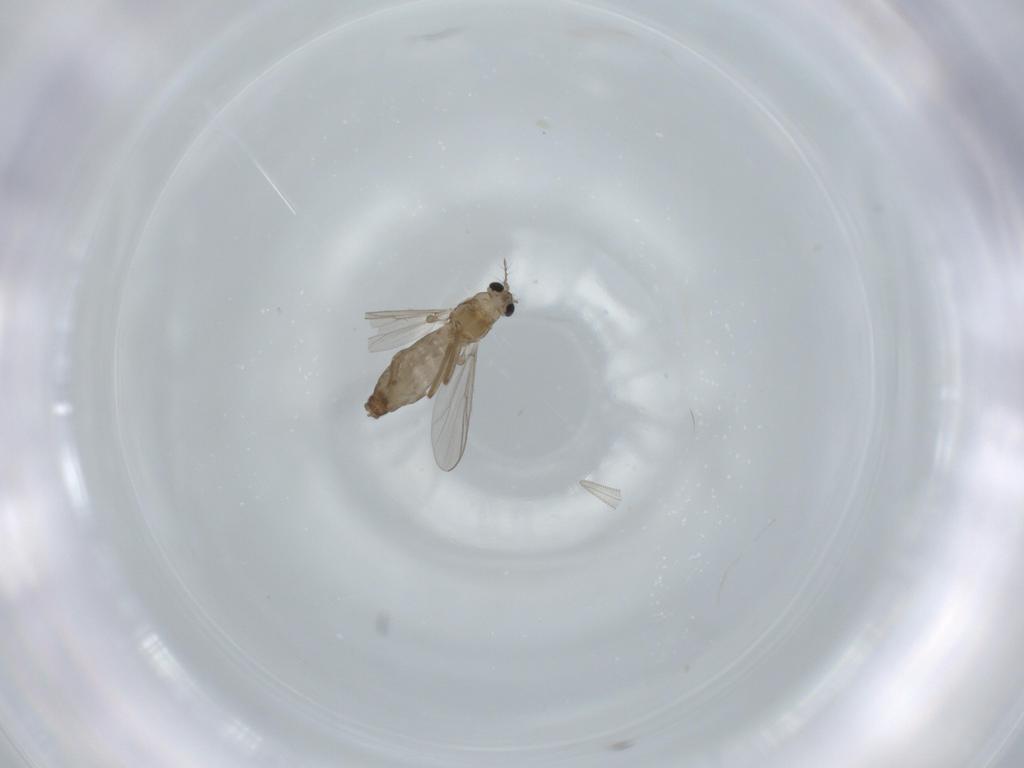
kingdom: Animalia
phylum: Arthropoda
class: Insecta
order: Diptera
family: Chironomidae
